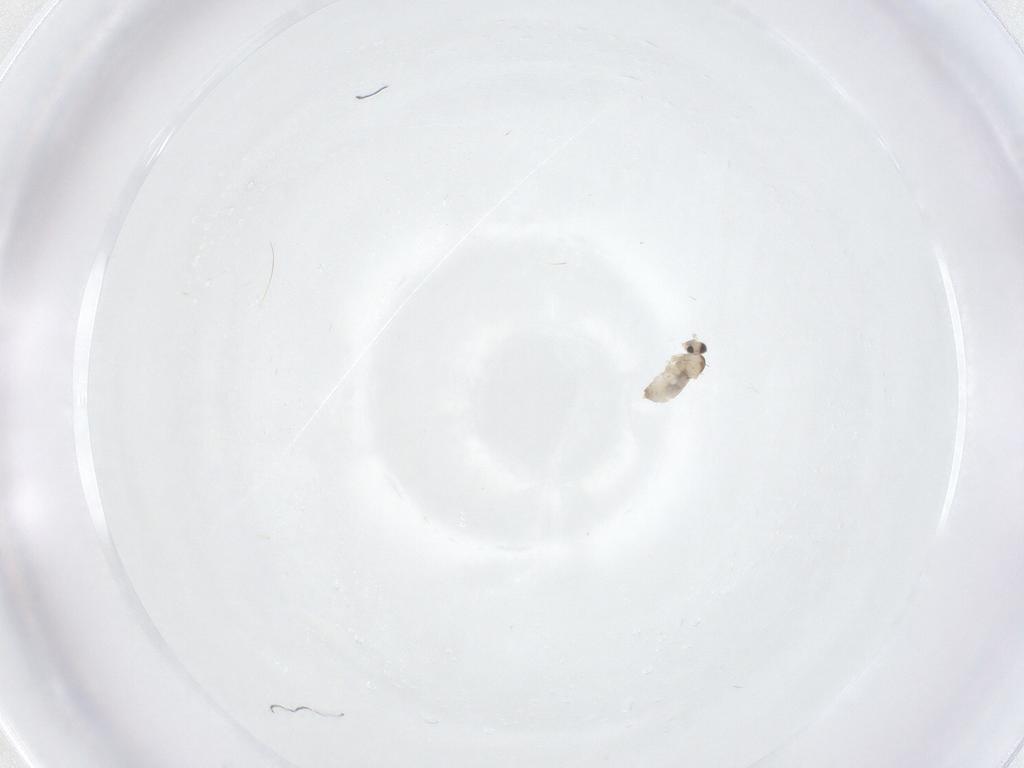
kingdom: Animalia
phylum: Arthropoda
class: Insecta
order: Diptera
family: Cecidomyiidae
